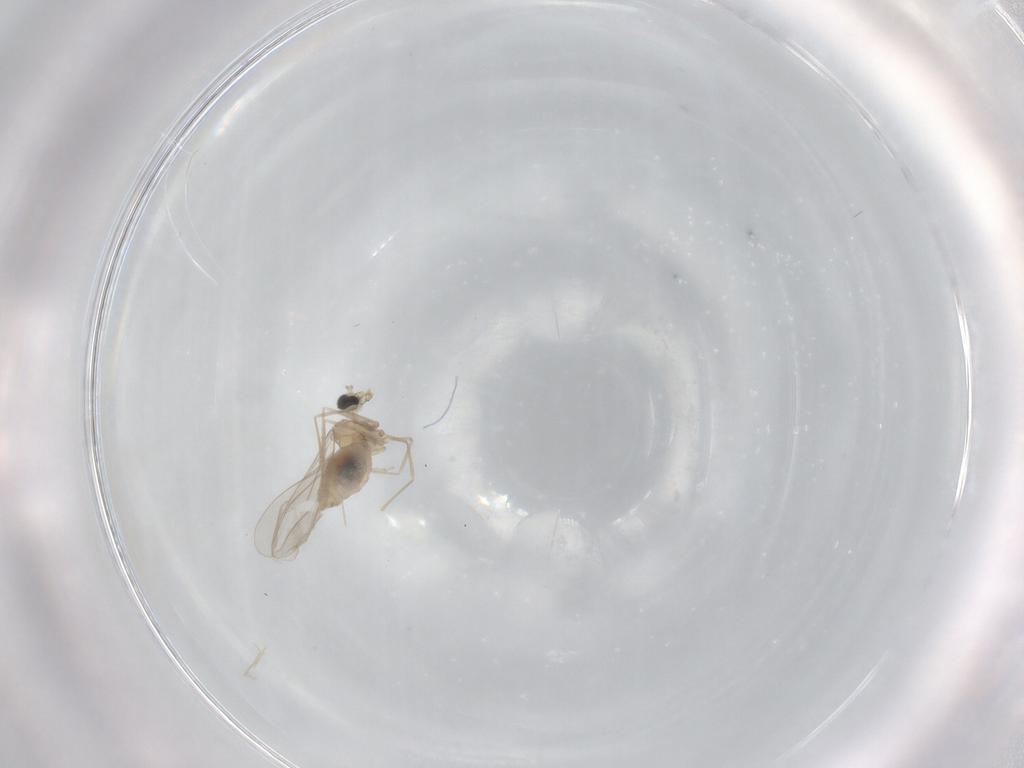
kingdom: Animalia
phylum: Arthropoda
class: Insecta
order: Diptera
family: Cecidomyiidae
